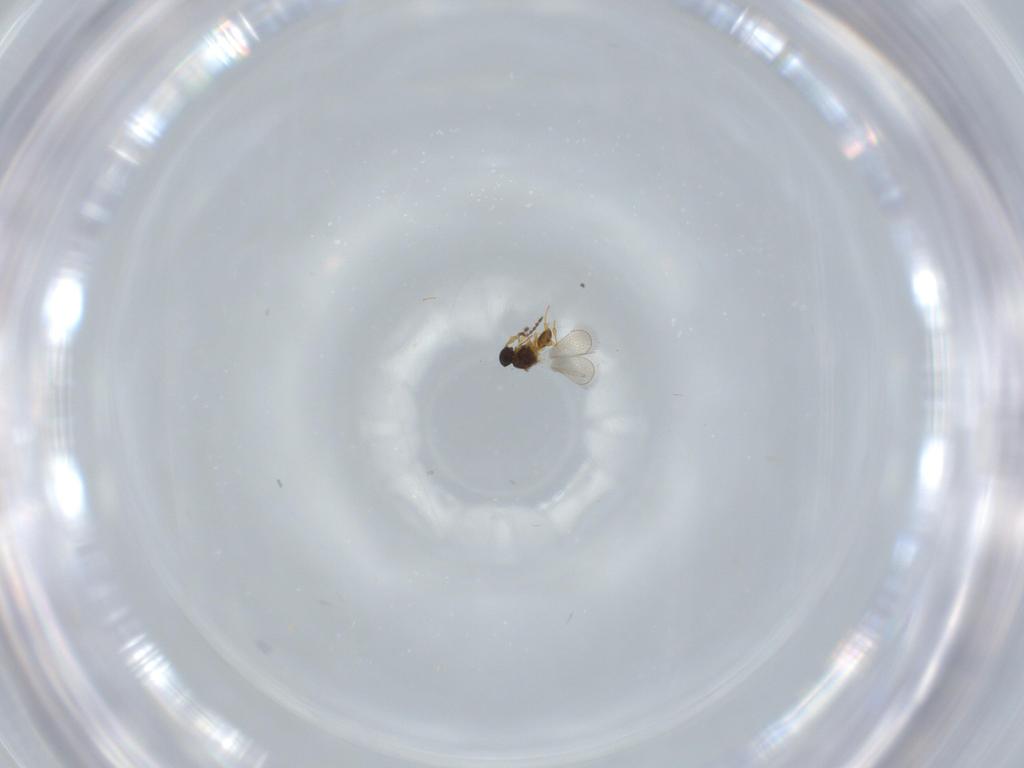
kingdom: Animalia
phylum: Arthropoda
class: Insecta
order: Hymenoptera
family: Platygastridae
